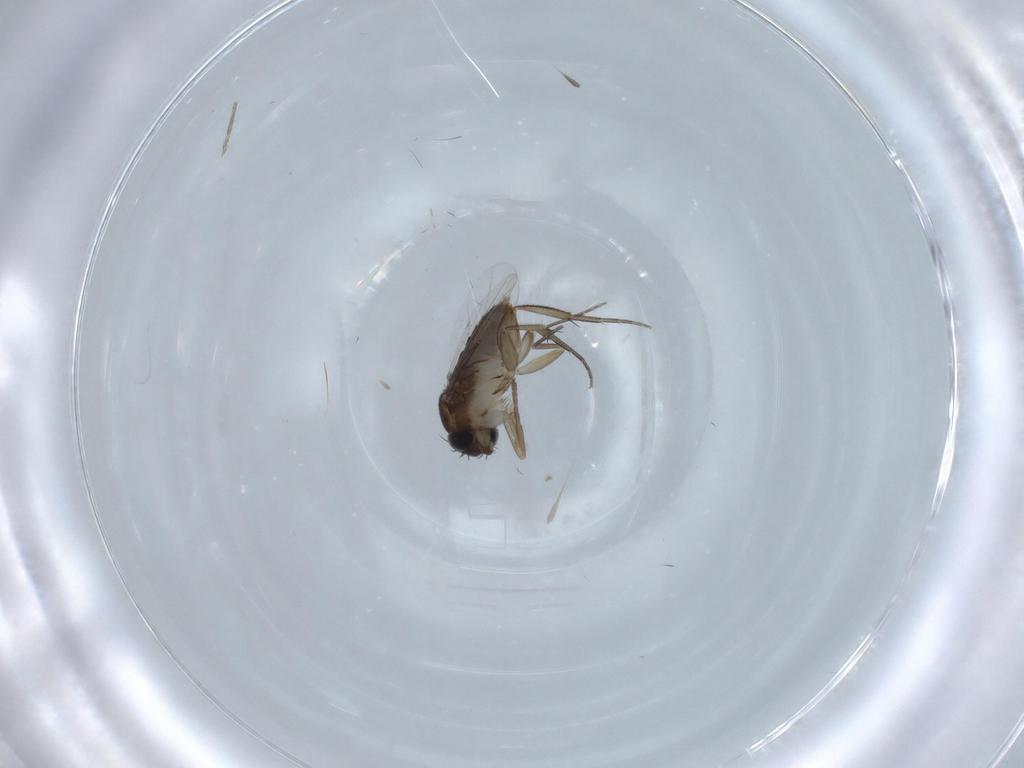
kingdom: Animalia
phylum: Arthropoda
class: Insecta
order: Diptera
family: Phoridae
